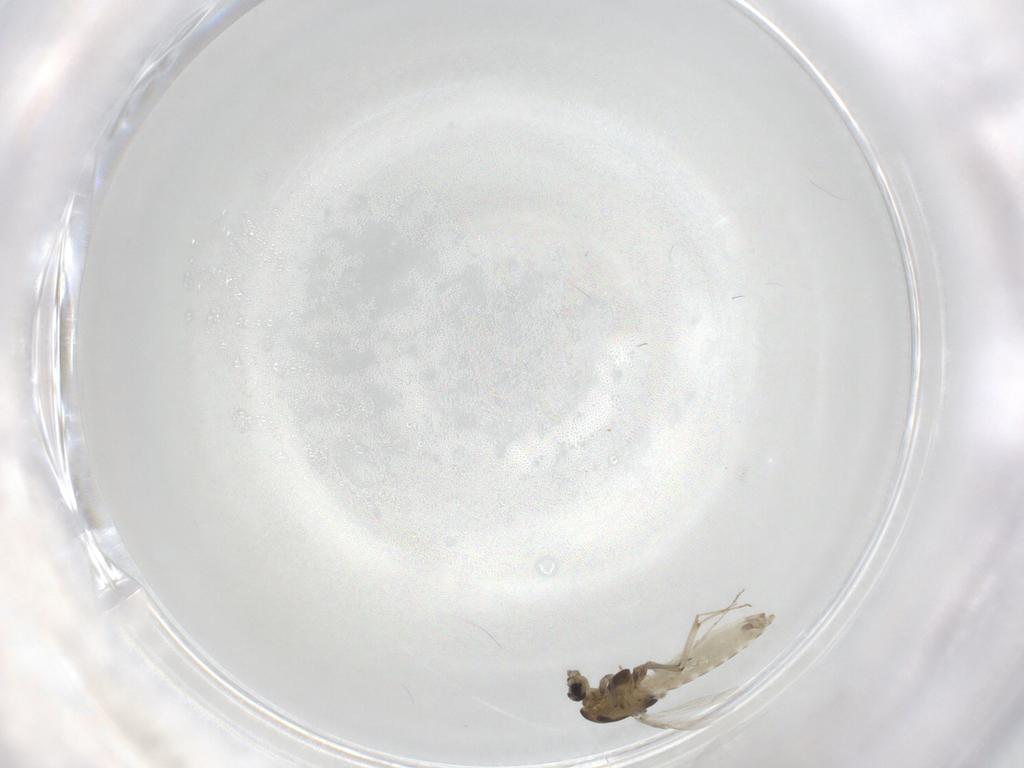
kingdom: Animalia
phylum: Arthropoda
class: Insecta
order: Diptera
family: Chironomidae
